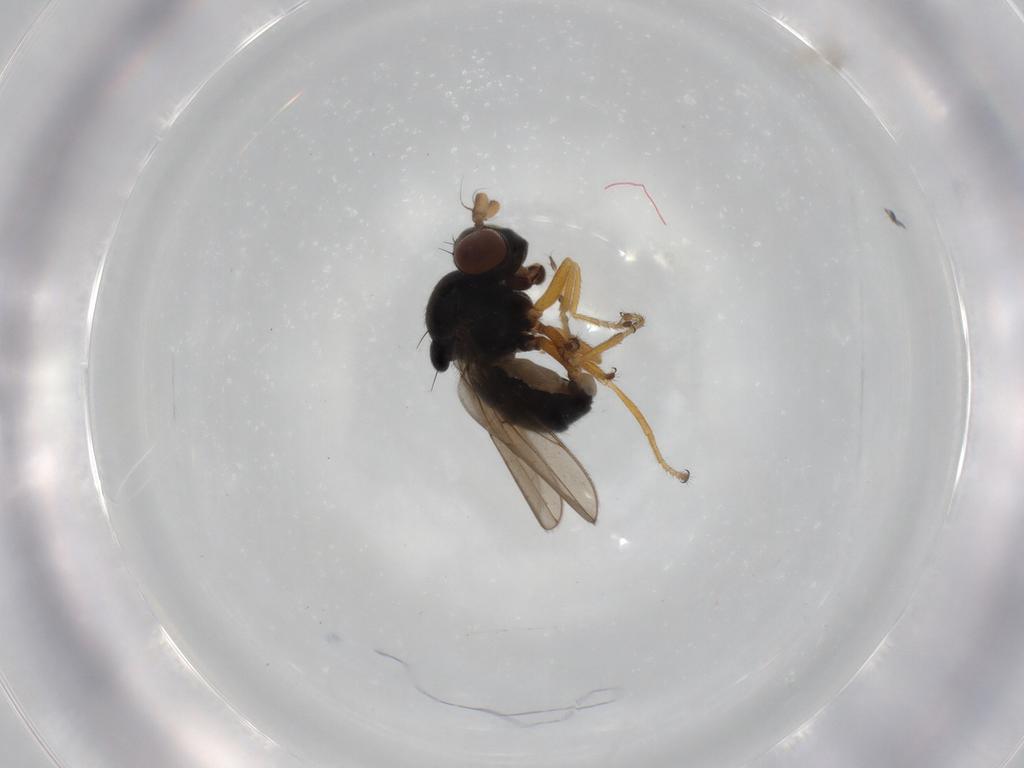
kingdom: Animalia
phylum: Arthropoda
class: Insecta
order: Diptera
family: Ephydridae
